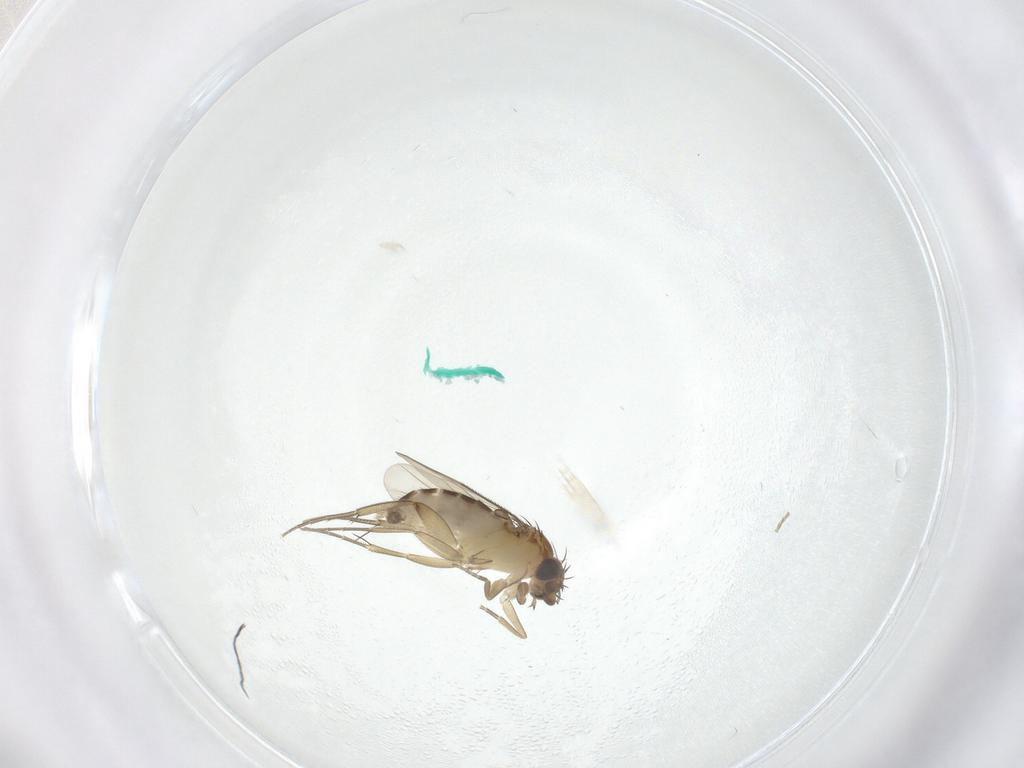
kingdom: Animalia
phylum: Arthropoda
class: Insecta
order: Diptera
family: Phoridae
